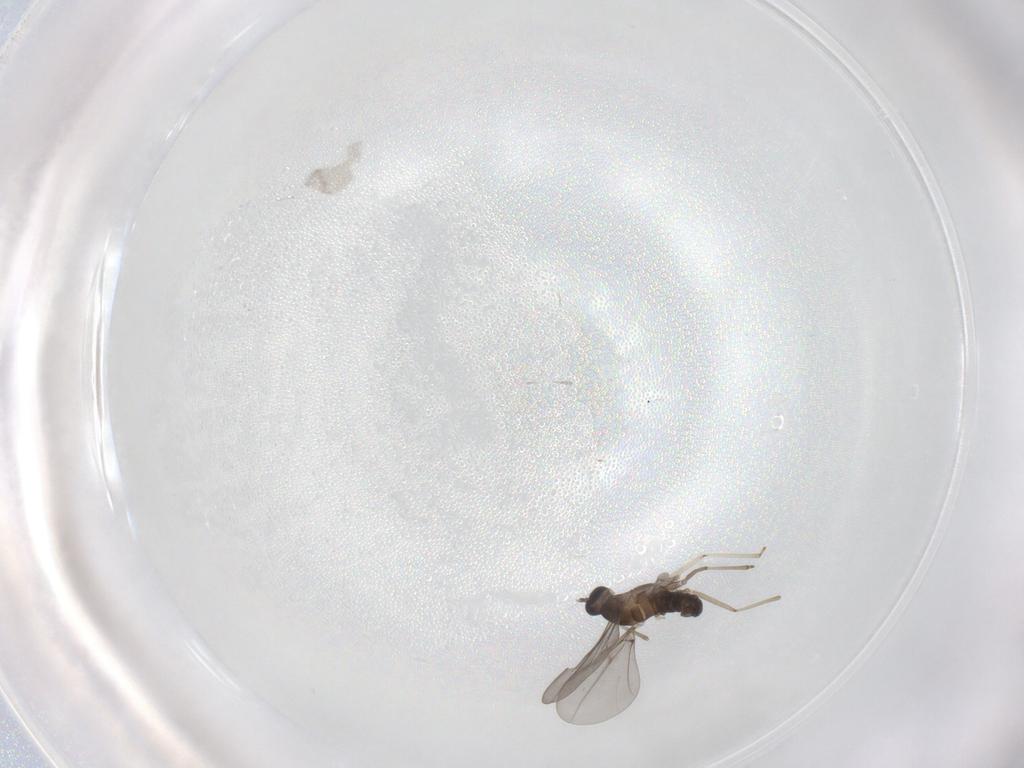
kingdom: Animalia
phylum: Arthropoda
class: Insecta
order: Diptera
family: Cecidomyiidae
